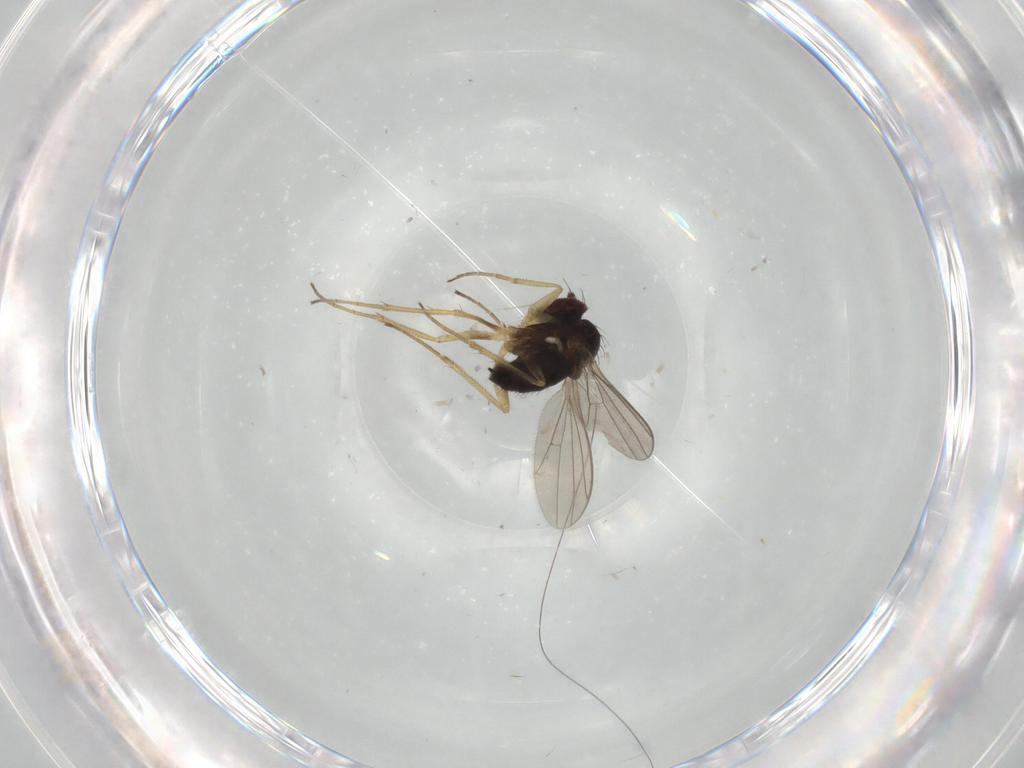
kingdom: Animalia
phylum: Arthropoda
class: Insecta
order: Diptera
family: Dolichopodidae
